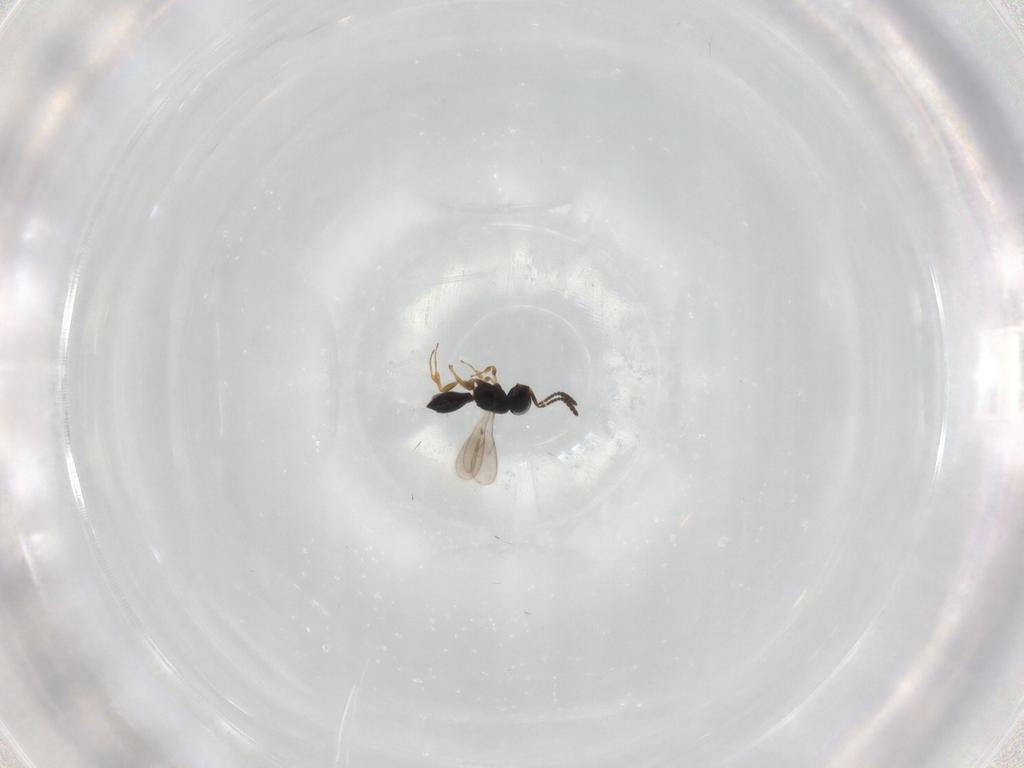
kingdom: Animalia
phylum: Arthropoda
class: Insecta
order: Hymenoptera
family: Scelionidae
